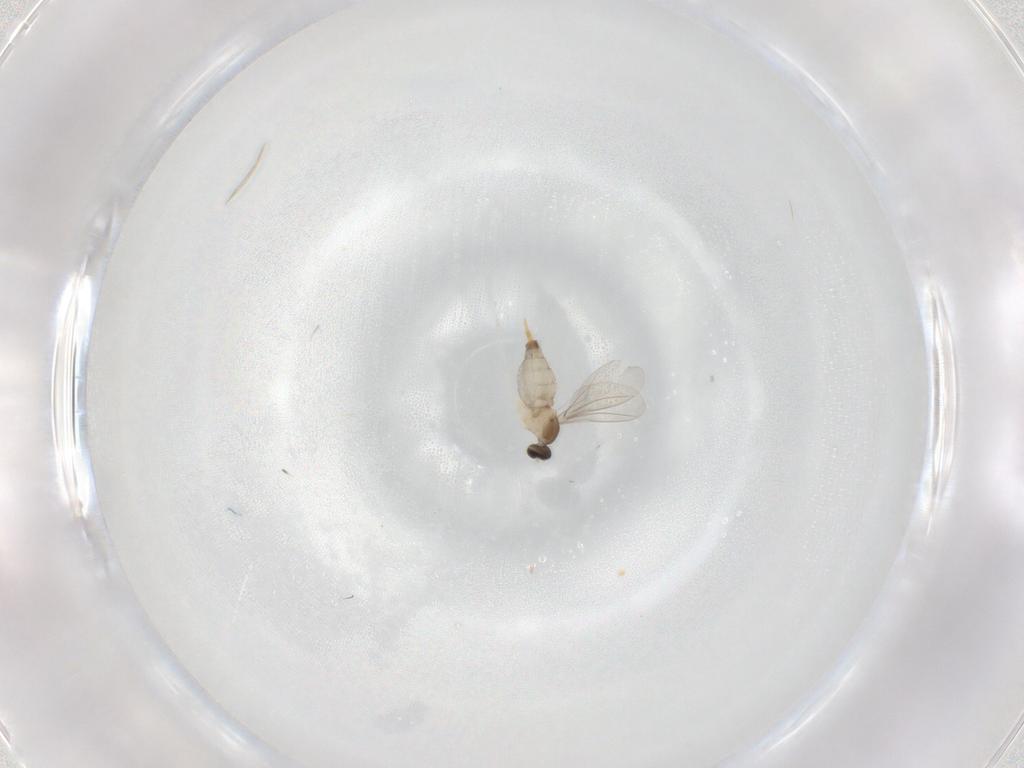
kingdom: Animalia
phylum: Arthropoda
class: Insecta
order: Diptera
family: Cecidomyiidae
